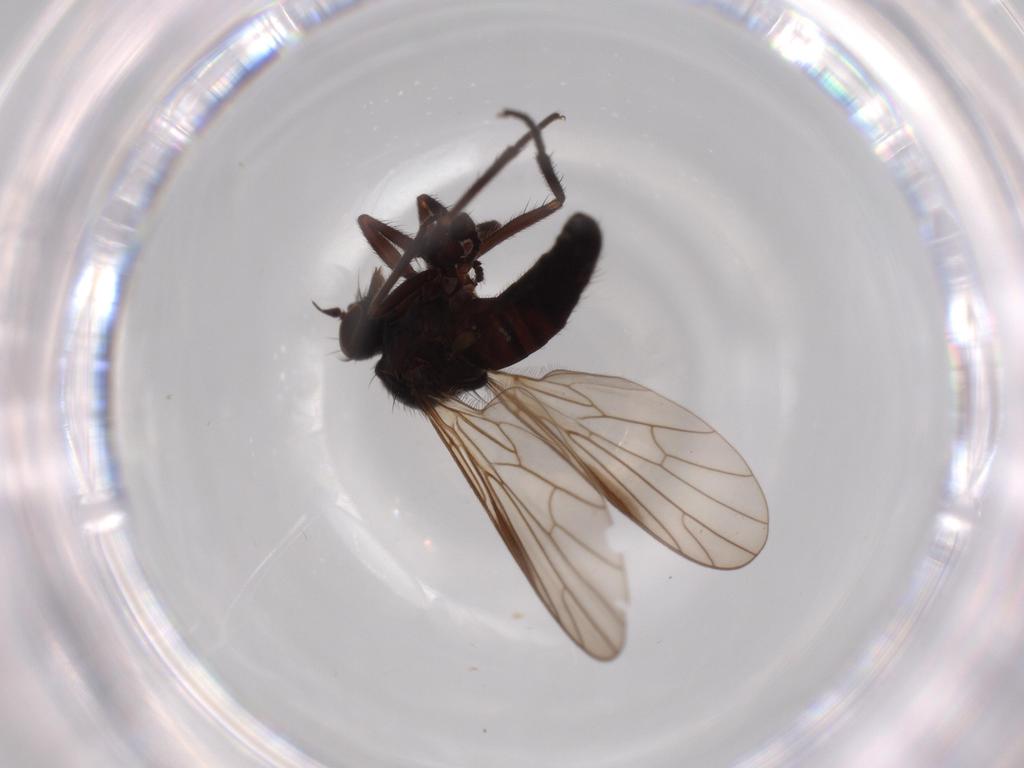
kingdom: Animalia
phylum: Arthropoda
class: Insecta
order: Diptera
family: Empididae
